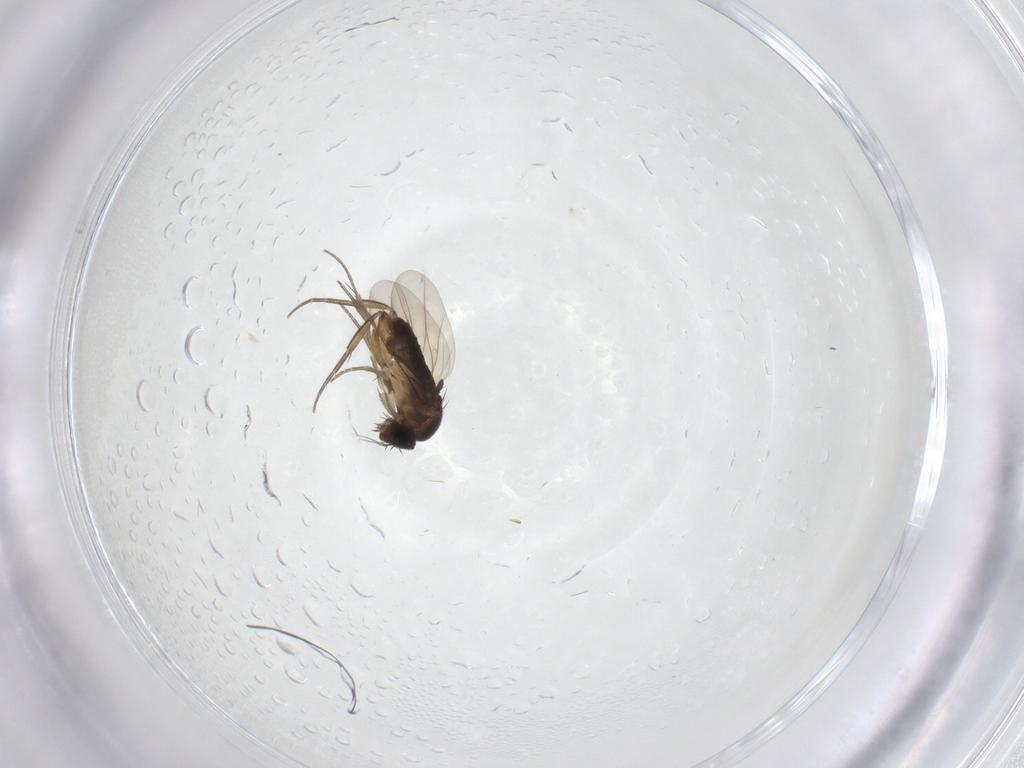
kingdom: Animalia
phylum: Arthropoda
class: Insecta
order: Diptera
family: Phoridae
